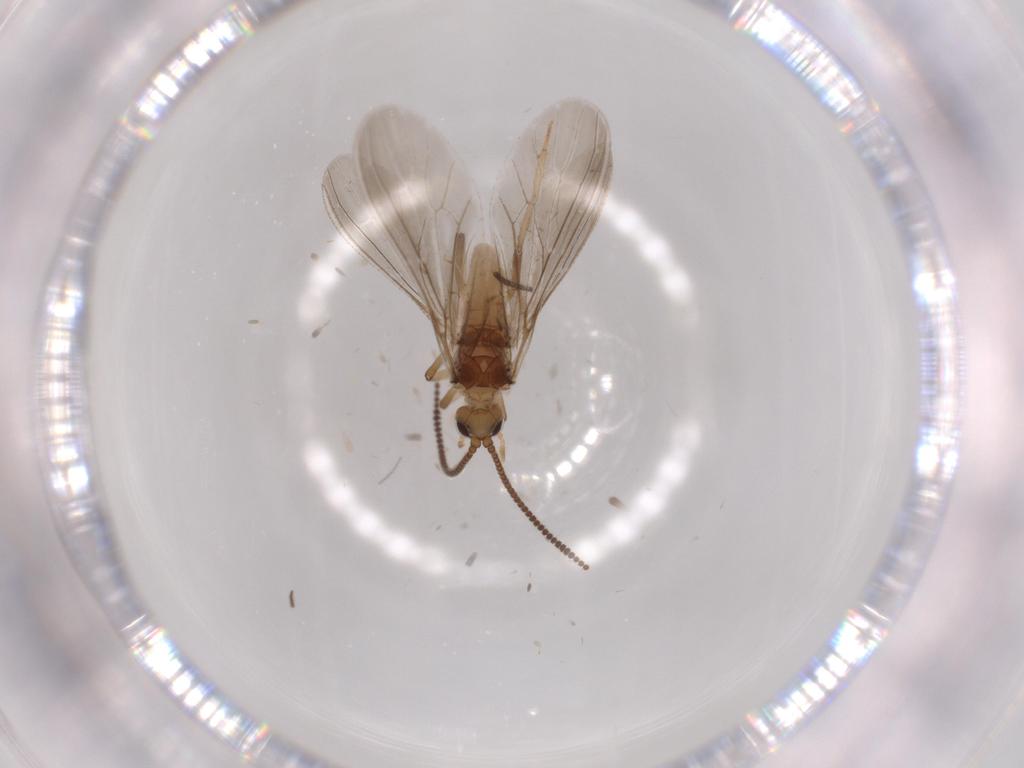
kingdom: Animalia
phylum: Arthropoda
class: Insecta
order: Neuroptera
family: Coniopterygidae
